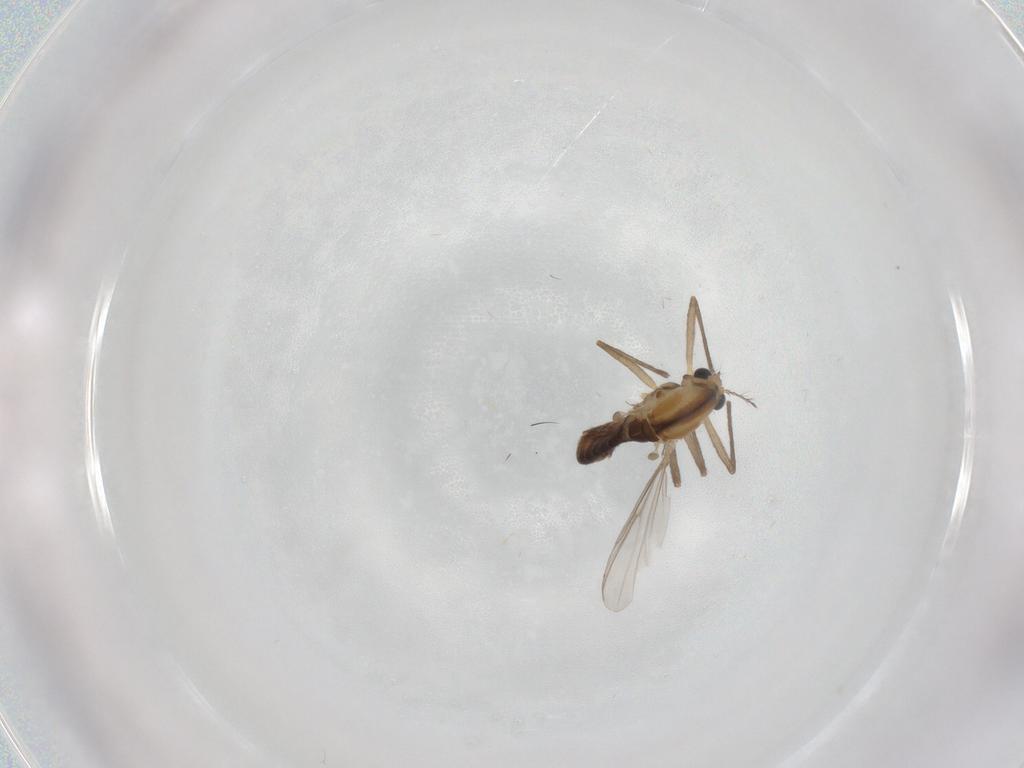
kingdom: Animalia
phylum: Arthropoda
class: Insecta
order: Diptera
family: Chironomidae
